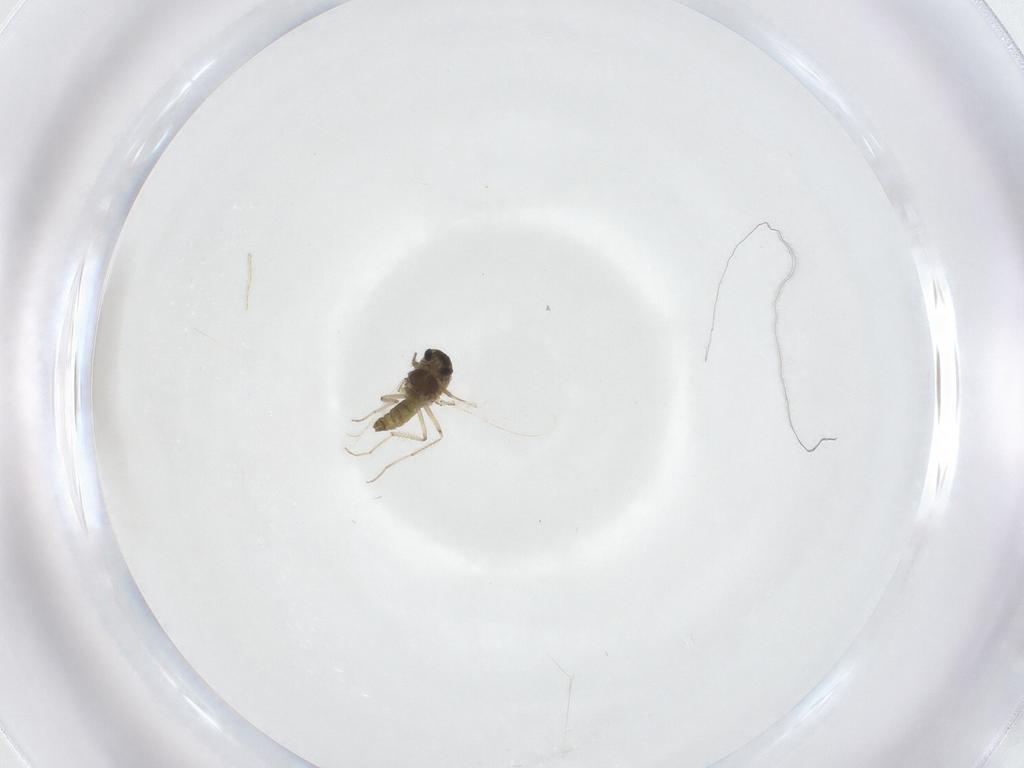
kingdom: Animalia
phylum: Arthropoda
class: Insecta
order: Diptera
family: Chironomidae
